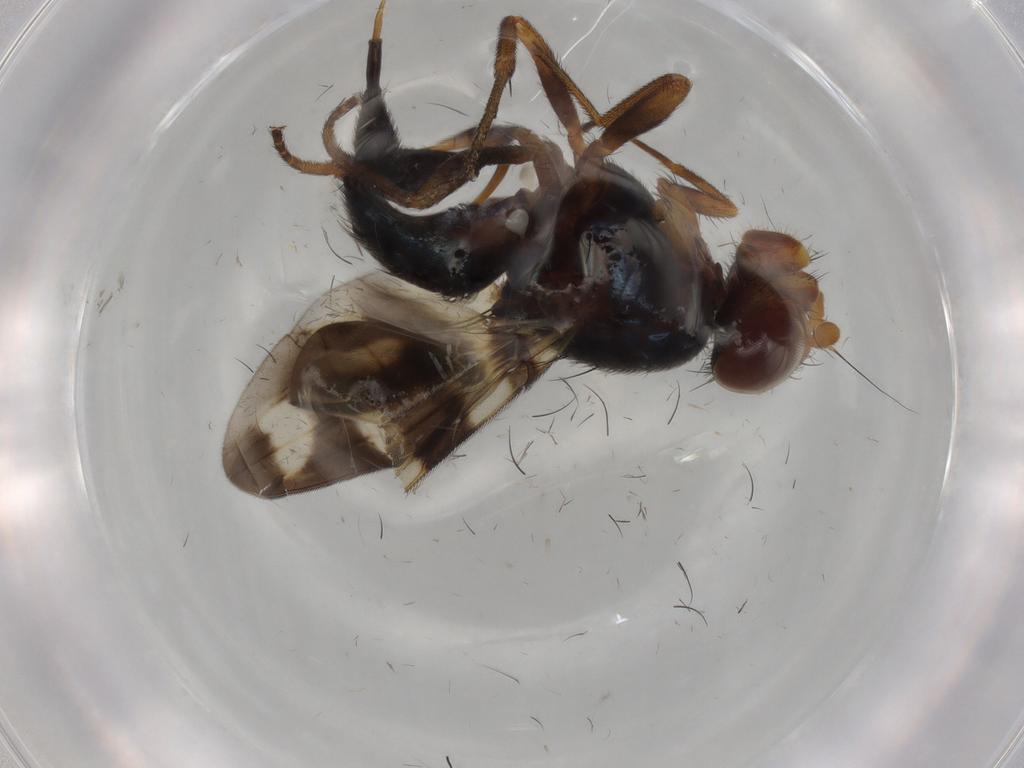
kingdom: Animalia
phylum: Arthropoda
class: Insecta
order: Diptera
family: Ulidiidae
